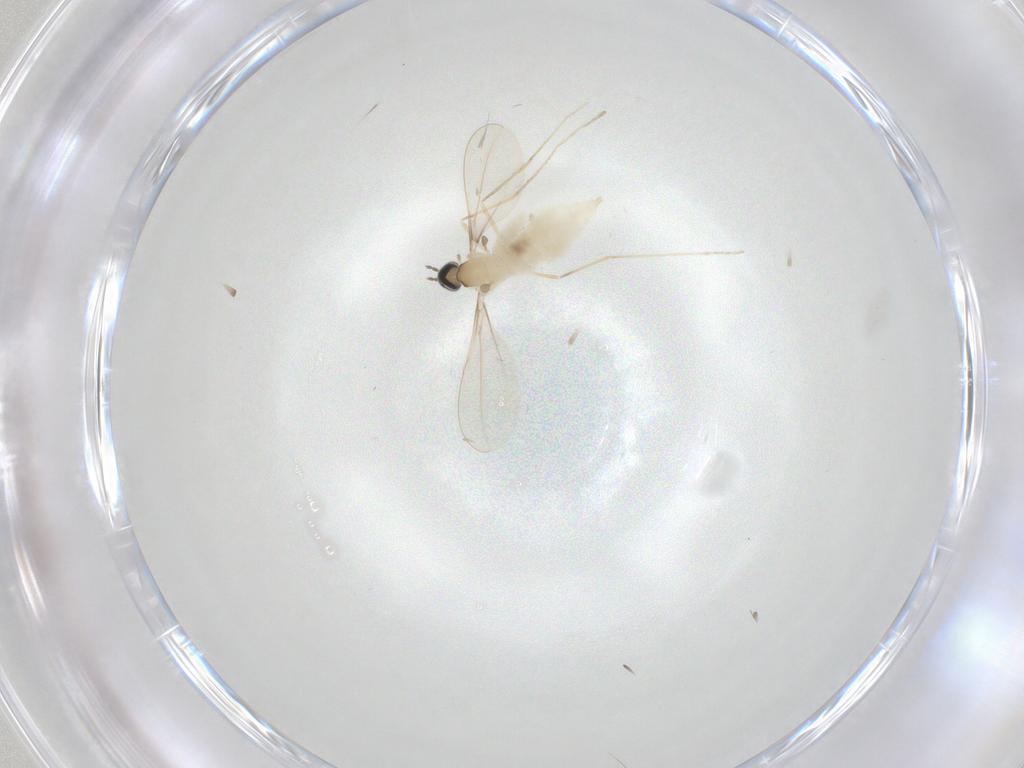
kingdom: Animalia
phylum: Arthropoda
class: Insecta
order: Diptera
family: Cecidomyiidae
